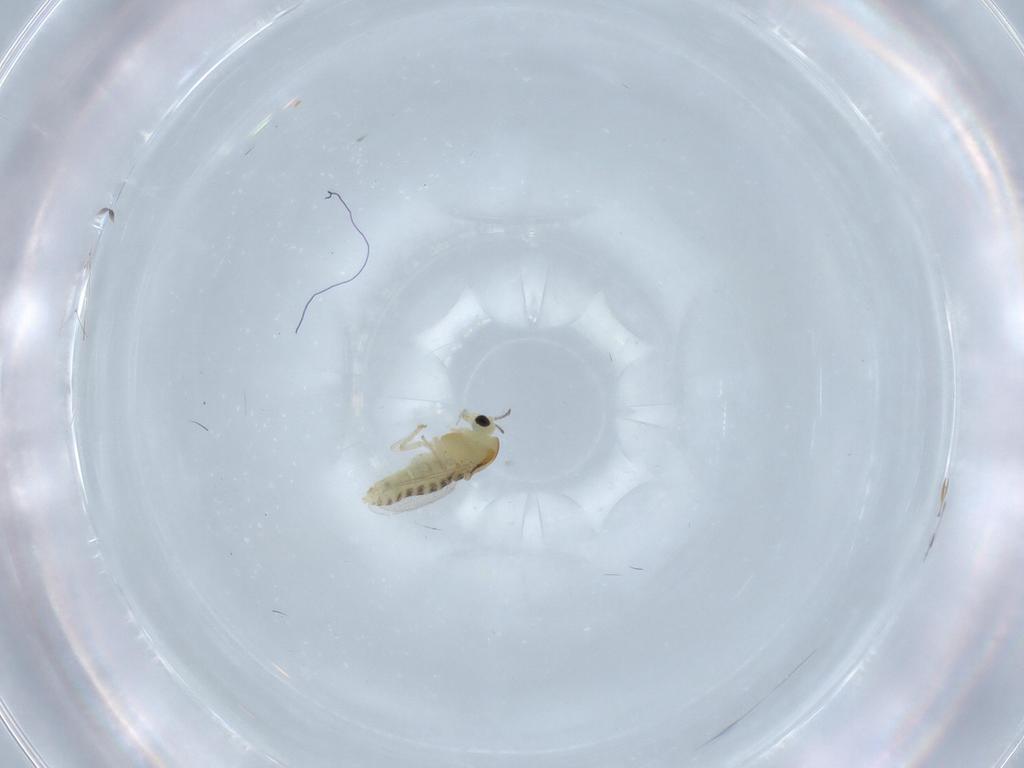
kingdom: Animalia
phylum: Arthropoda
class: Insecta
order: Diptera
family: Chironomidae
